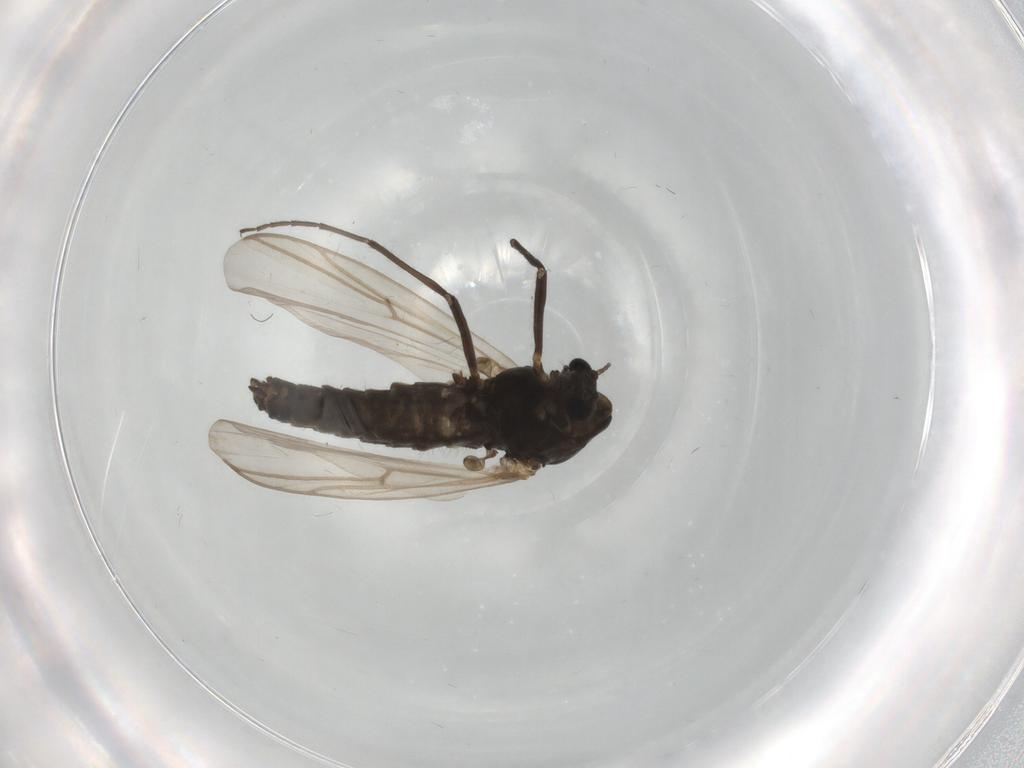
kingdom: Animalia
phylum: Arthropoda
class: Insecta
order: Diptera
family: Chironomidae
